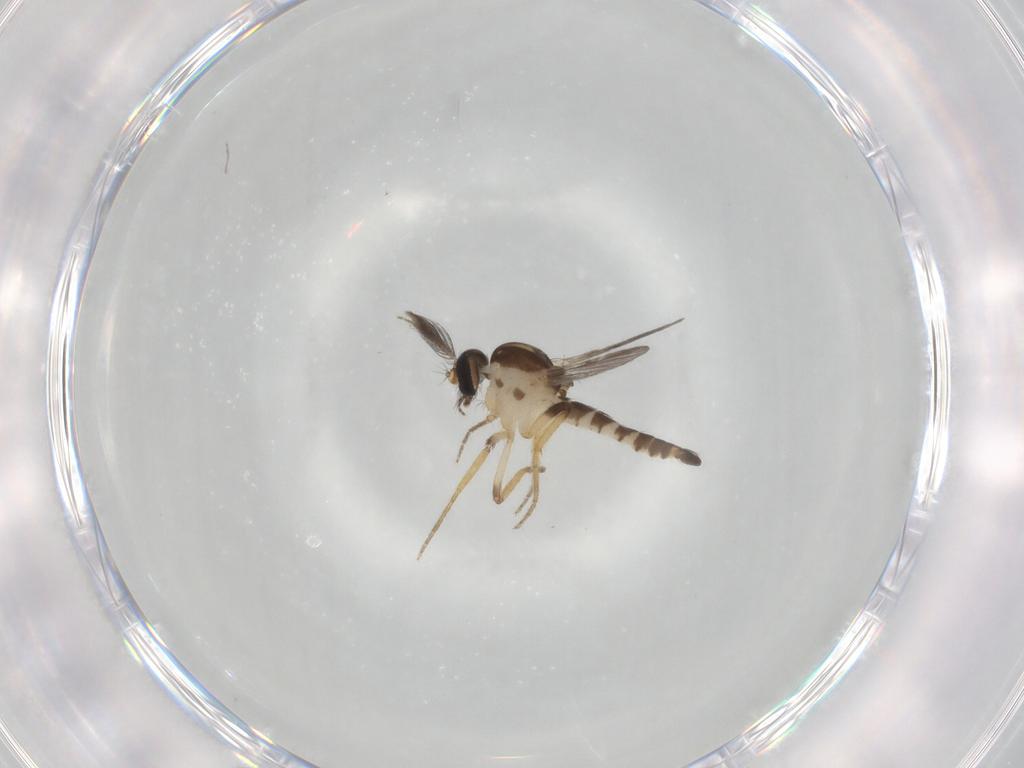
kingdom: Animalia
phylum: Arthropoda
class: Insecta
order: Diptera
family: Ceratopogonidae
